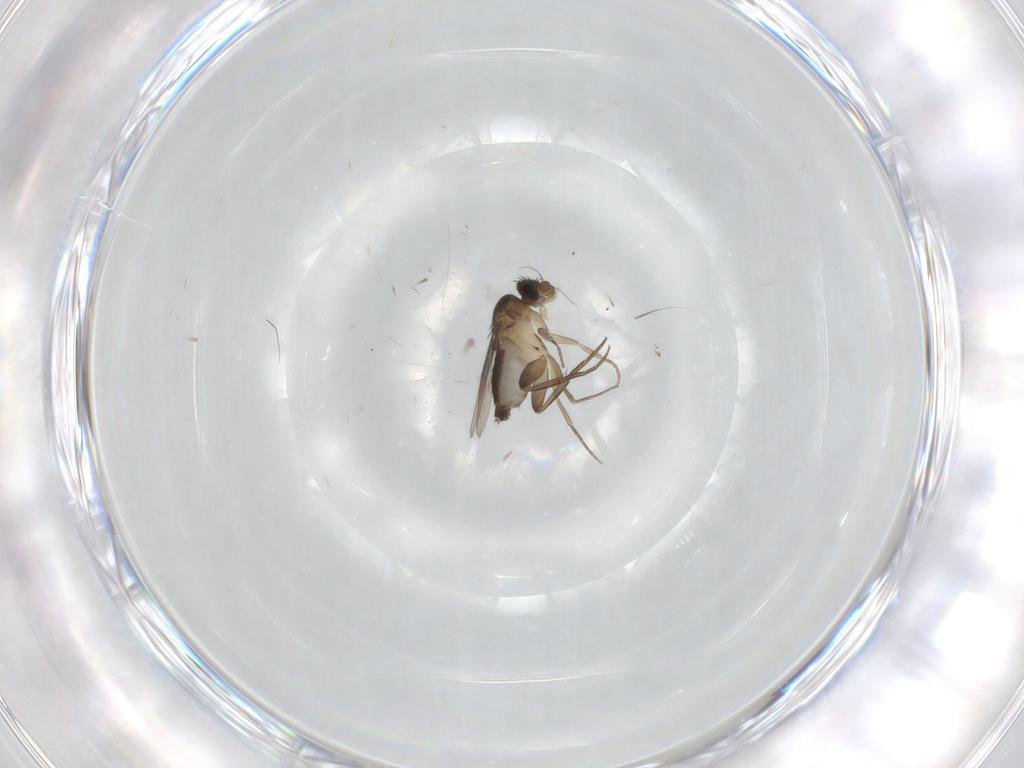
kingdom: Animalia
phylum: Arthropoda
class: Insecta
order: Diptera
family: Phoridae
